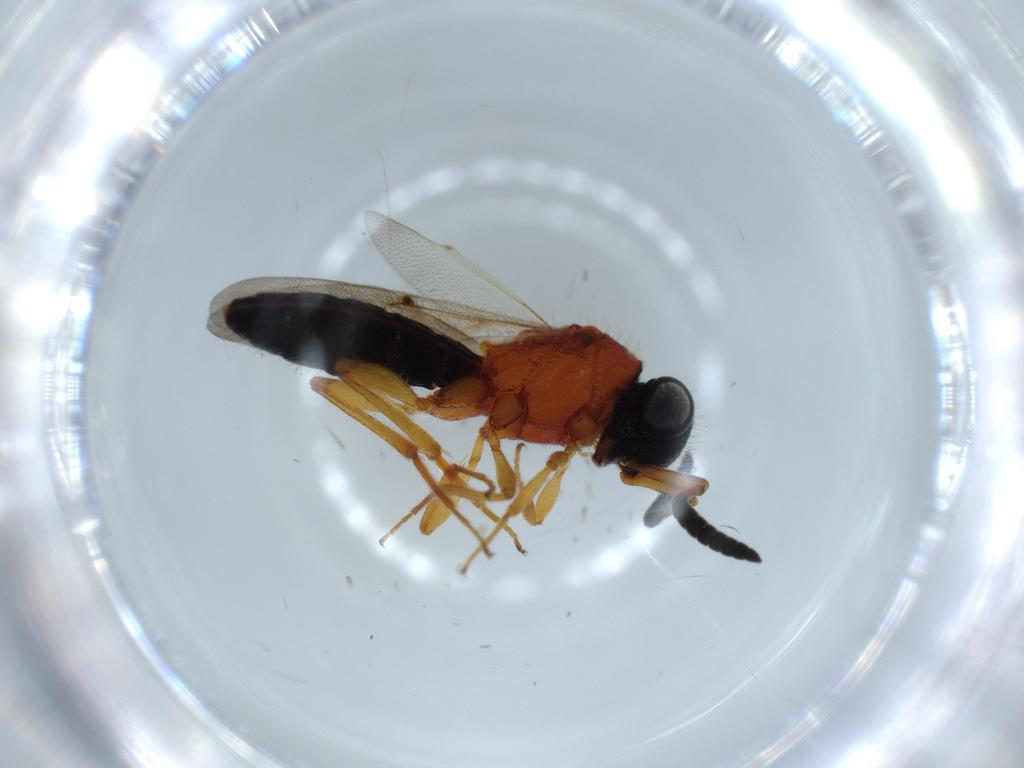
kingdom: Animalia
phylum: Arthropoda
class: Insecta
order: Hymenoptera
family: Scelionidae
